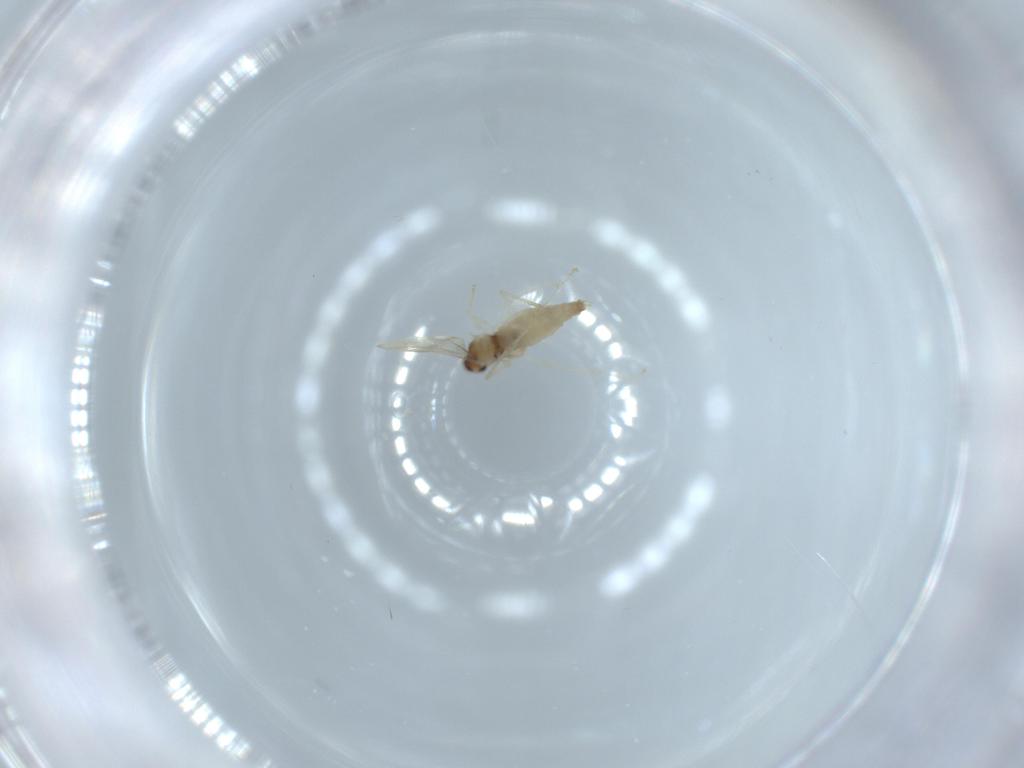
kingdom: Animalia
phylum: Arthropoda
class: Insecta
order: Diptera
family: Cecidomyiidae
